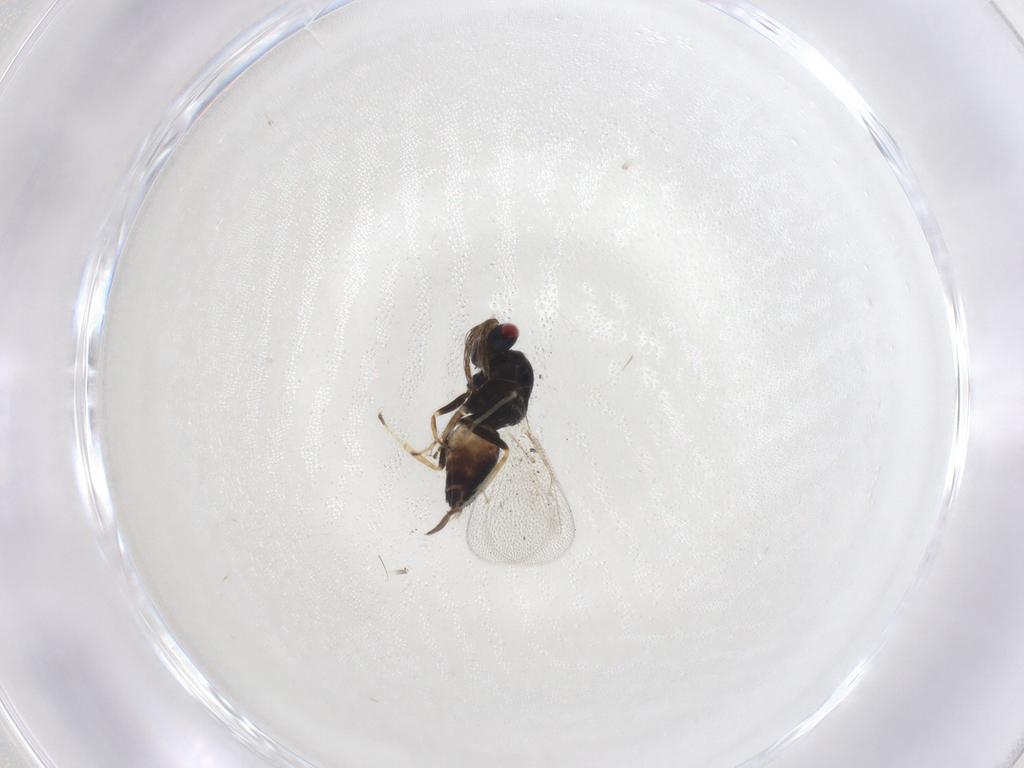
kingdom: Animalia
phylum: Arthropoda
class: Insecta
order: Hymenoptera
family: Eulophidae
